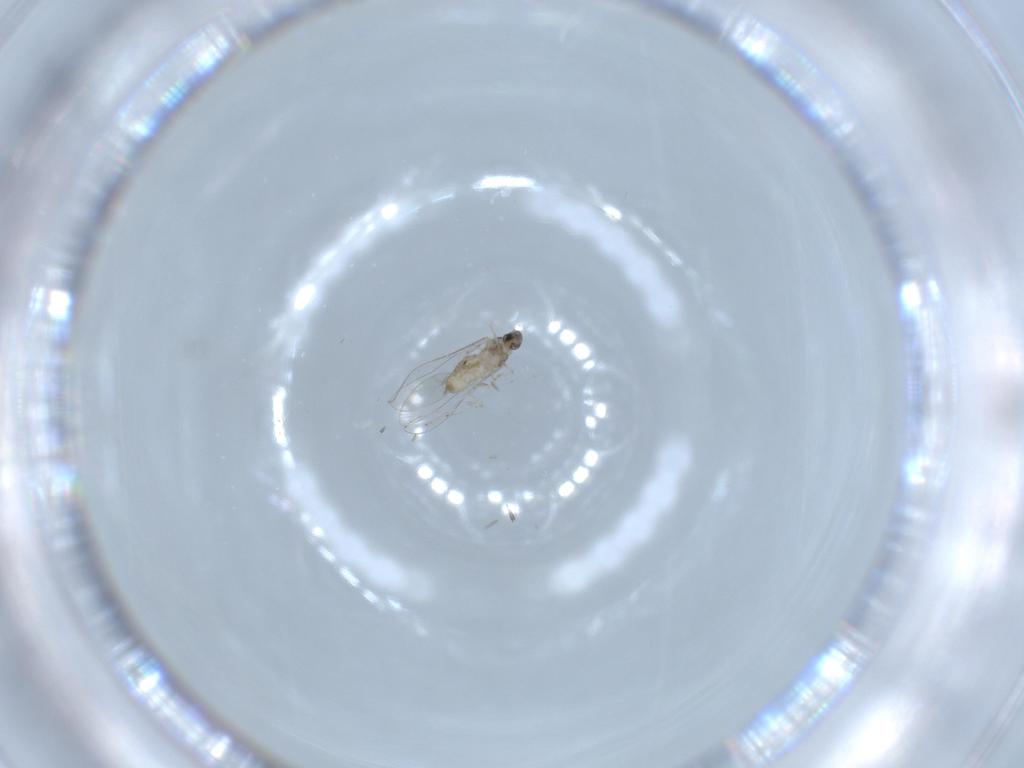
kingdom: Animalia
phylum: Arthropoda
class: Insecta
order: Diptera
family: Cecidomyiidae
